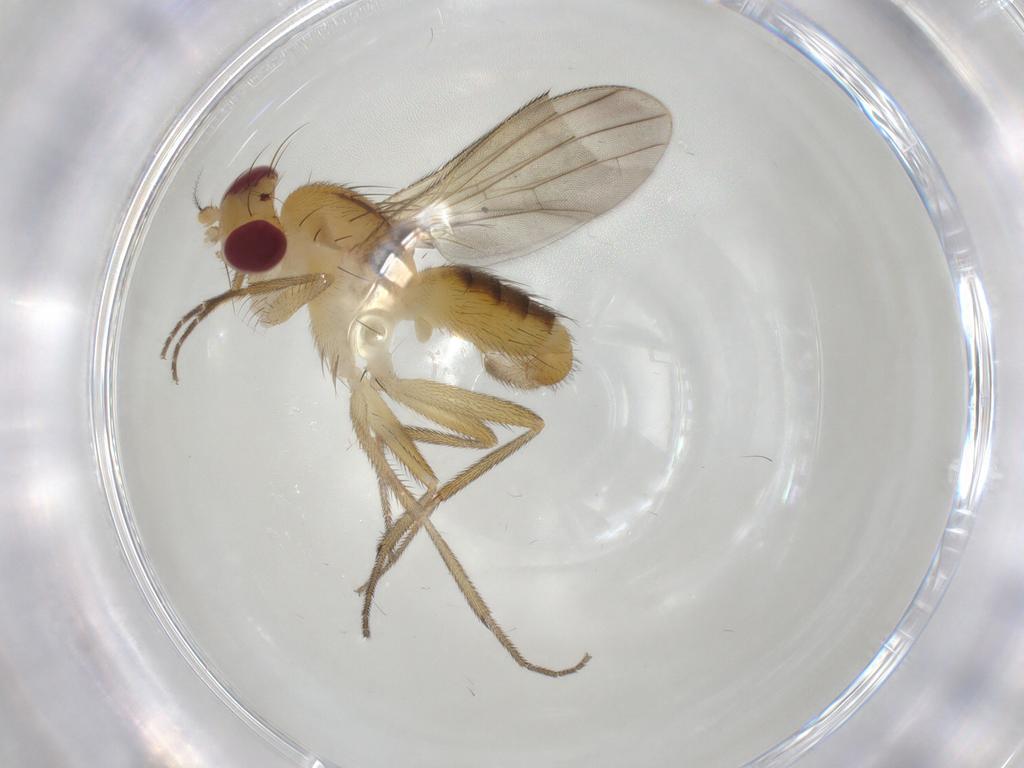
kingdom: Animalia
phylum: Arthropoda
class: Insecta
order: Diptera
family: Clusiidae
